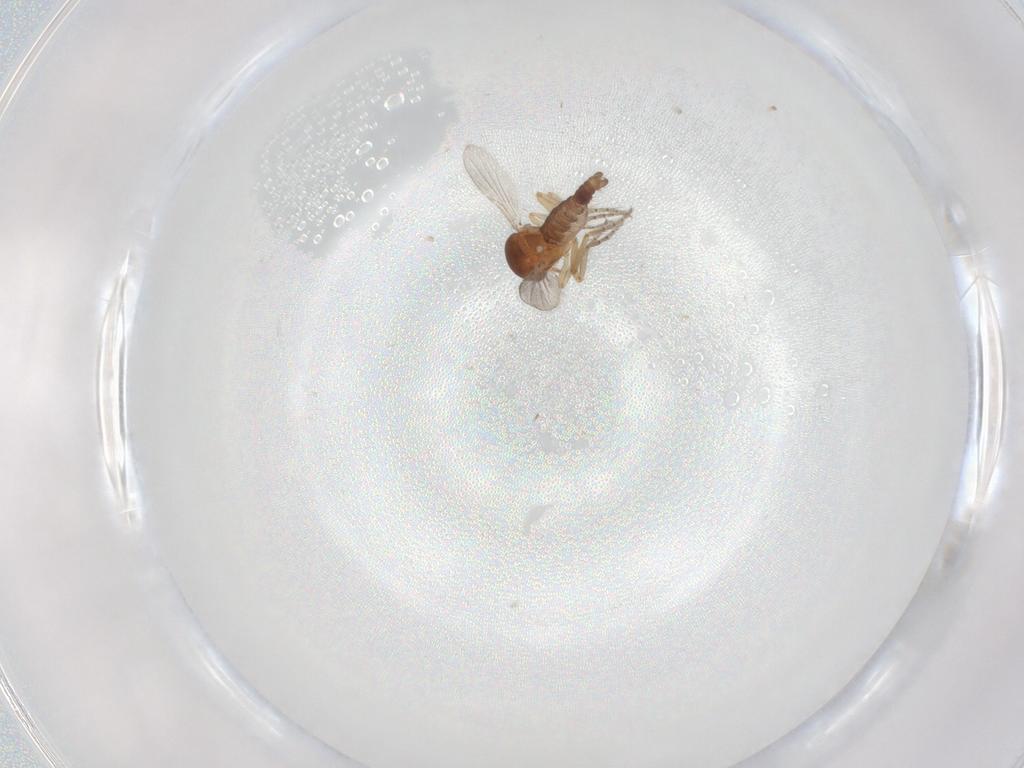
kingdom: Animalia
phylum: Arthropoda
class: Insecta
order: Diptera
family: Ceratopogonidae
